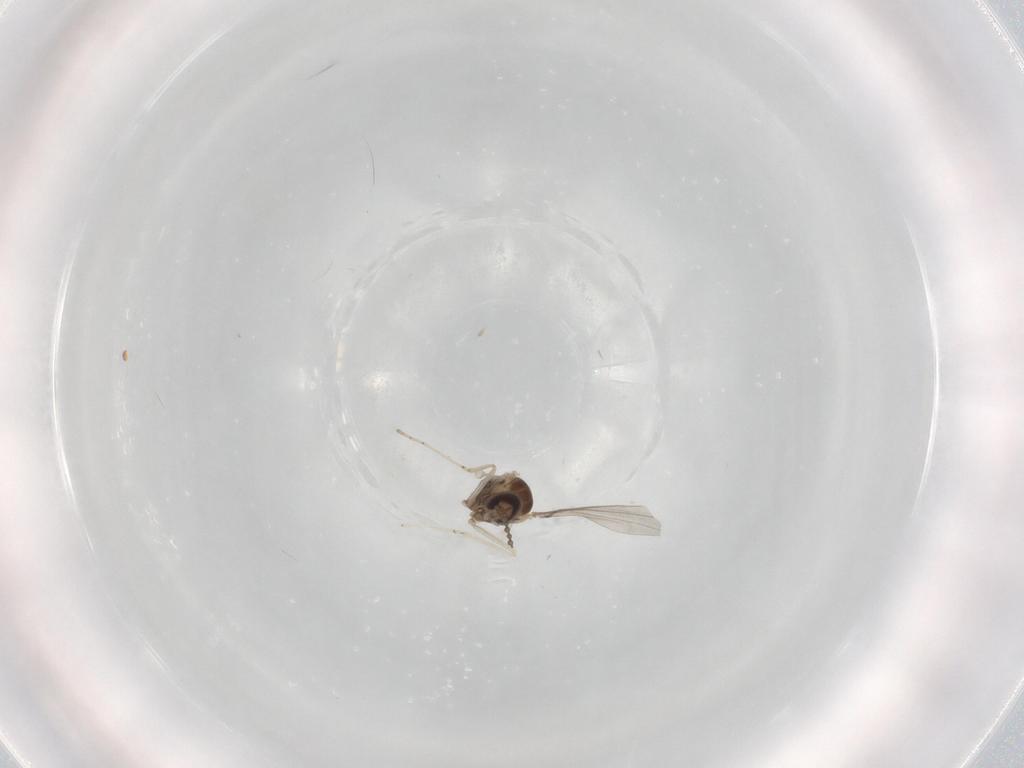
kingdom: Animalia
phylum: Arthropoda
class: Insecta
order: Diptera
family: Cecidomyiidae
